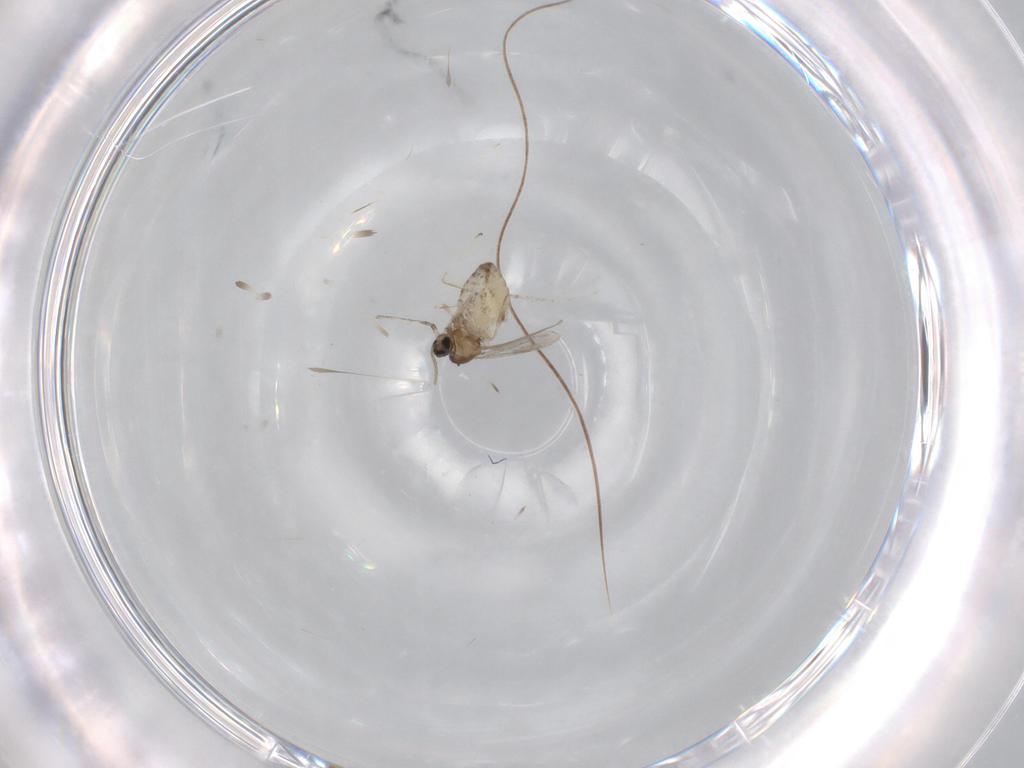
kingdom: Animalia
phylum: Arthropoda
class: Insecta
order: Diptera
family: Cecidomyiidae
